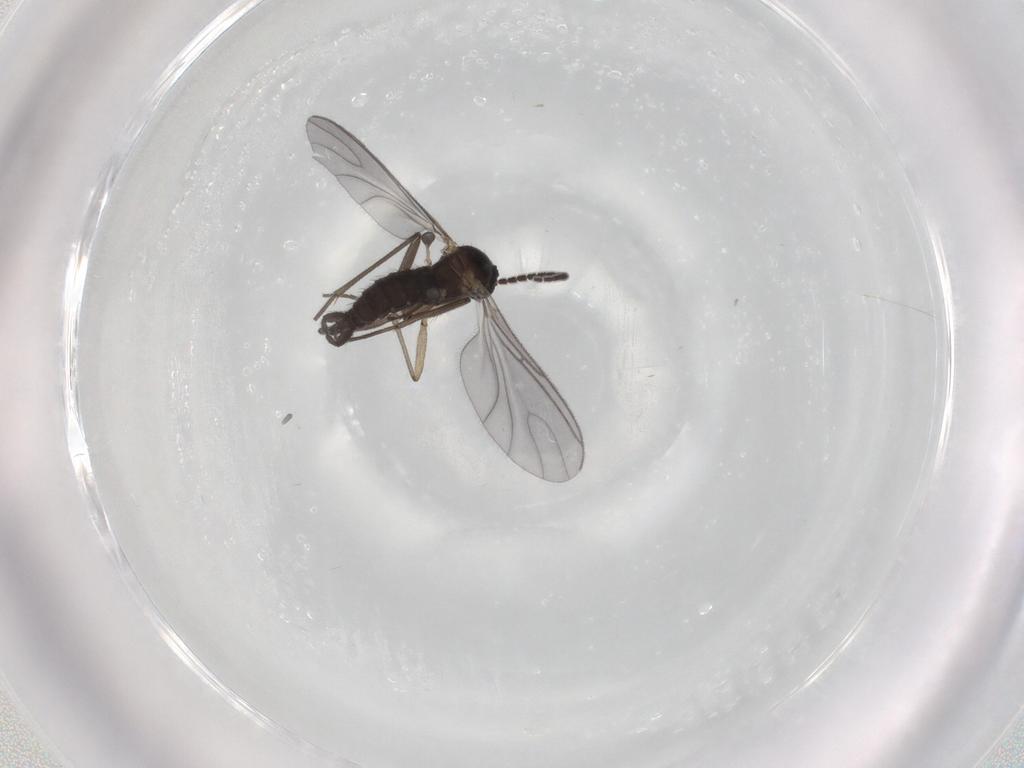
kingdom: Animalia
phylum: Arthropoda
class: Insecta
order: Diptera
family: Sciaridae
